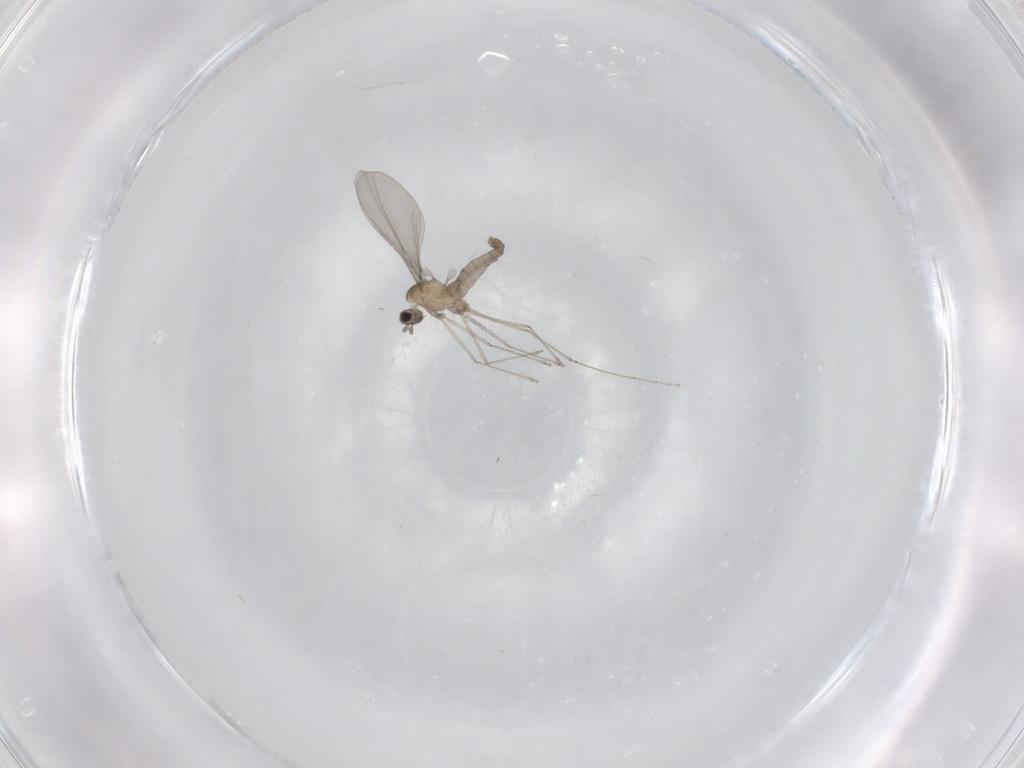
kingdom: Animalia
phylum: Arthropoda
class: Insecta
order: Diptera
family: Cecidomyiidae
